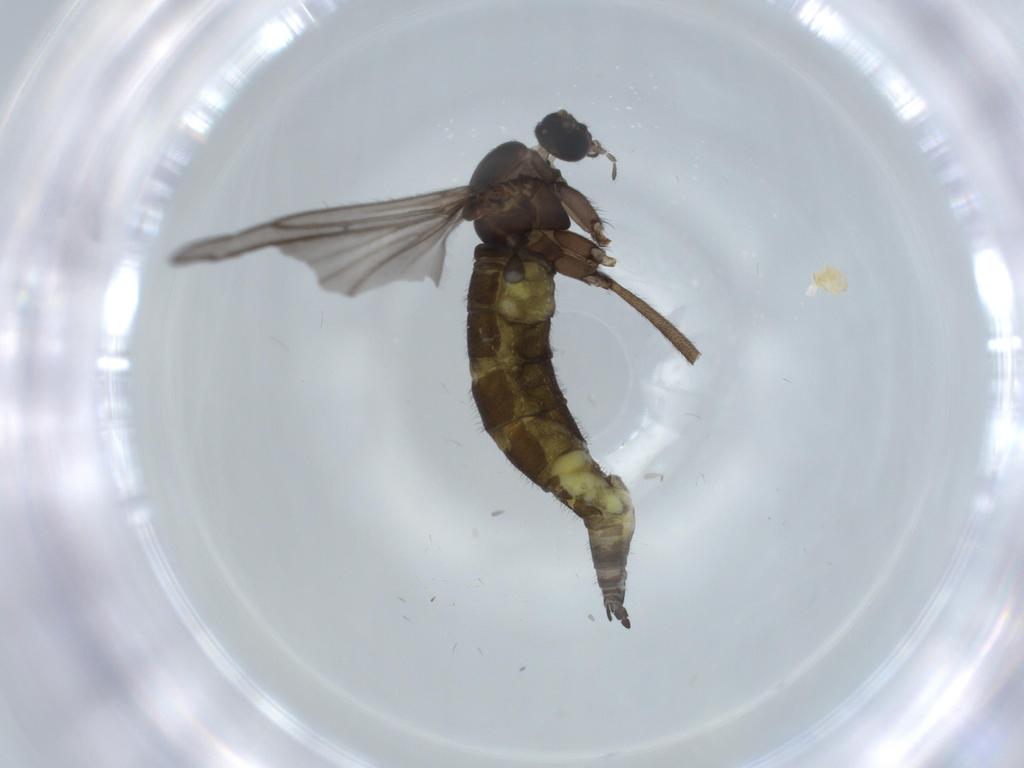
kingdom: Animalia
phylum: Arthropoda
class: Insecta
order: Diptera
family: Sciaridae
